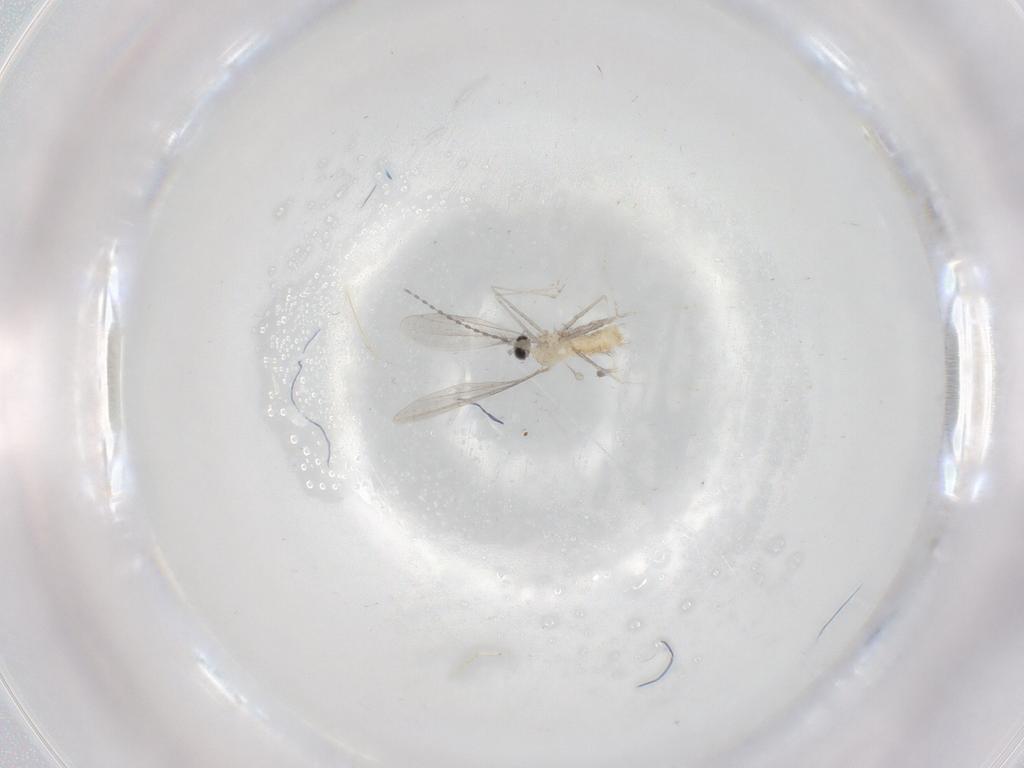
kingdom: Animalia
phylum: Arthropoda
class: Insecta
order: Diptera
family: Cecidomyiidae
